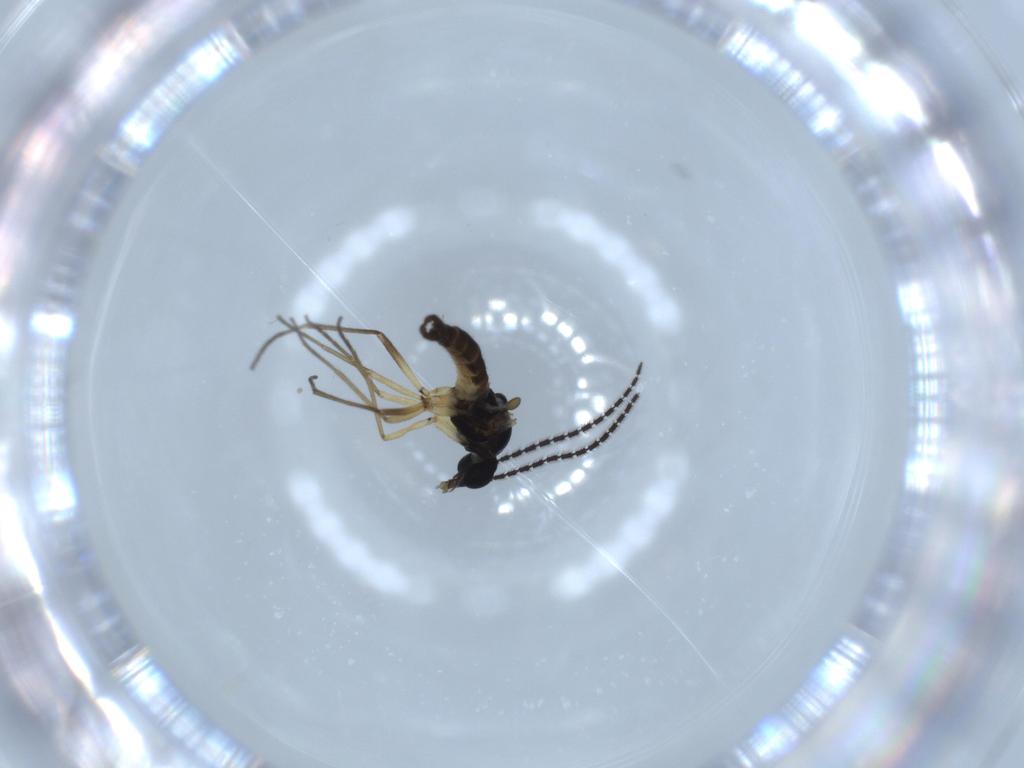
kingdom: Animalia
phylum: Arthropoda
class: Insecta
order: Diptera
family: Sciaridae
